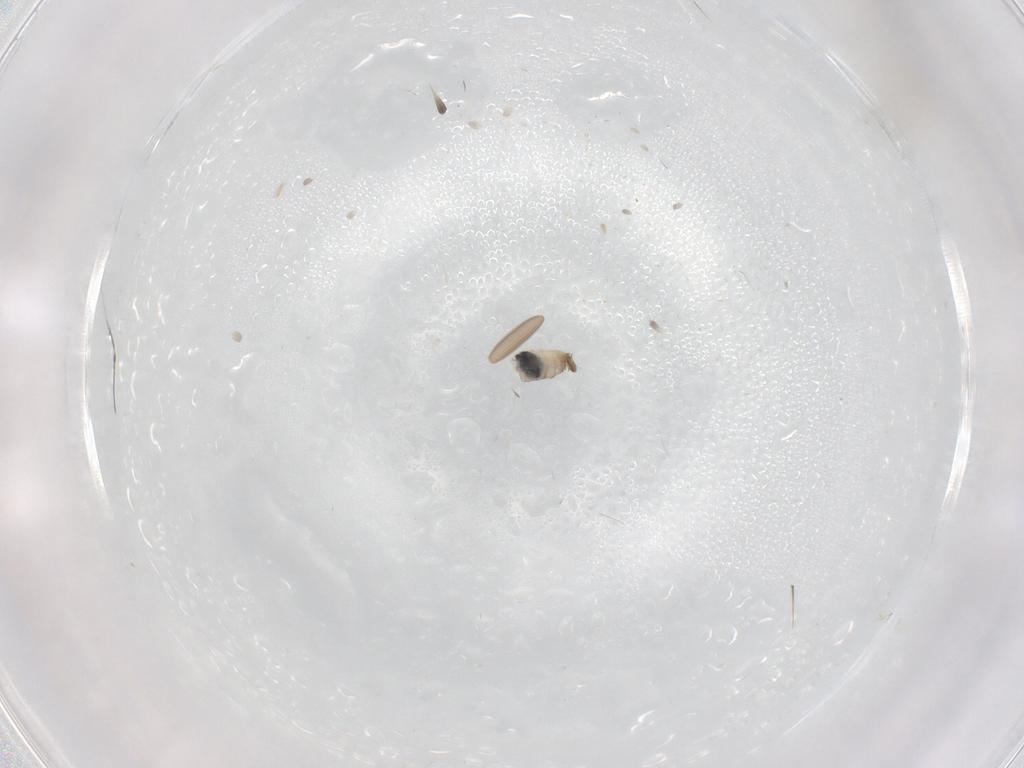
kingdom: Animalia
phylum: Arthropoda
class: Insecta
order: Diptera
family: Cecidomyiidae
